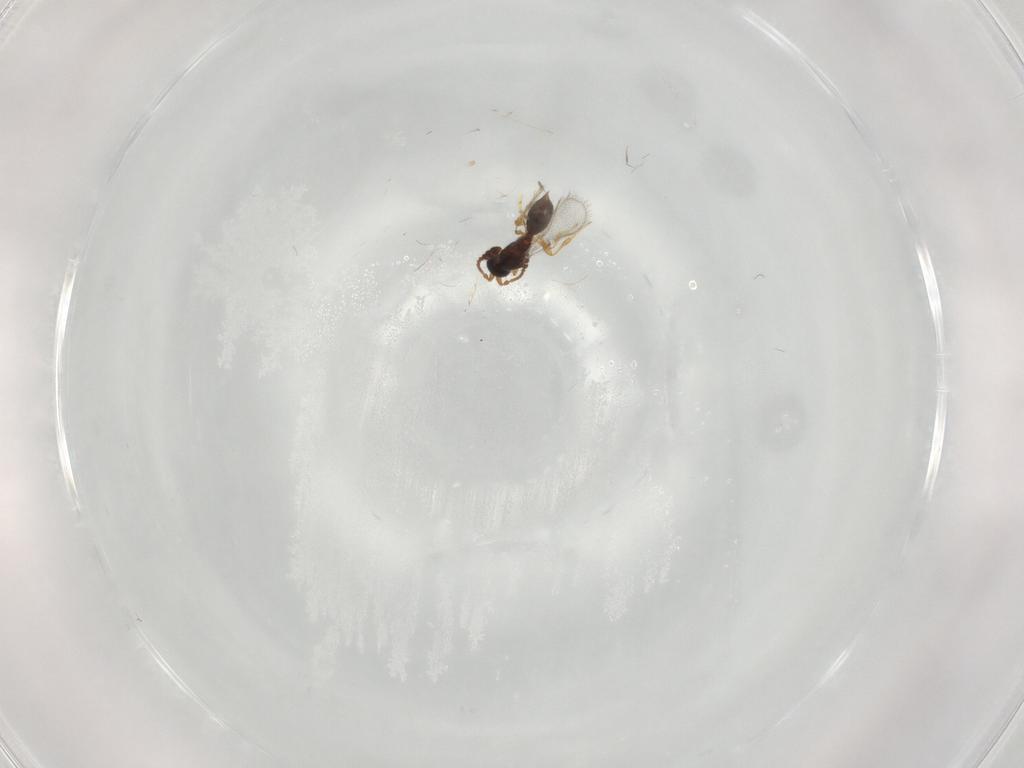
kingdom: Animalia
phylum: Arthropoda
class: Insecta
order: Hymenoptera
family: Diapriidae
